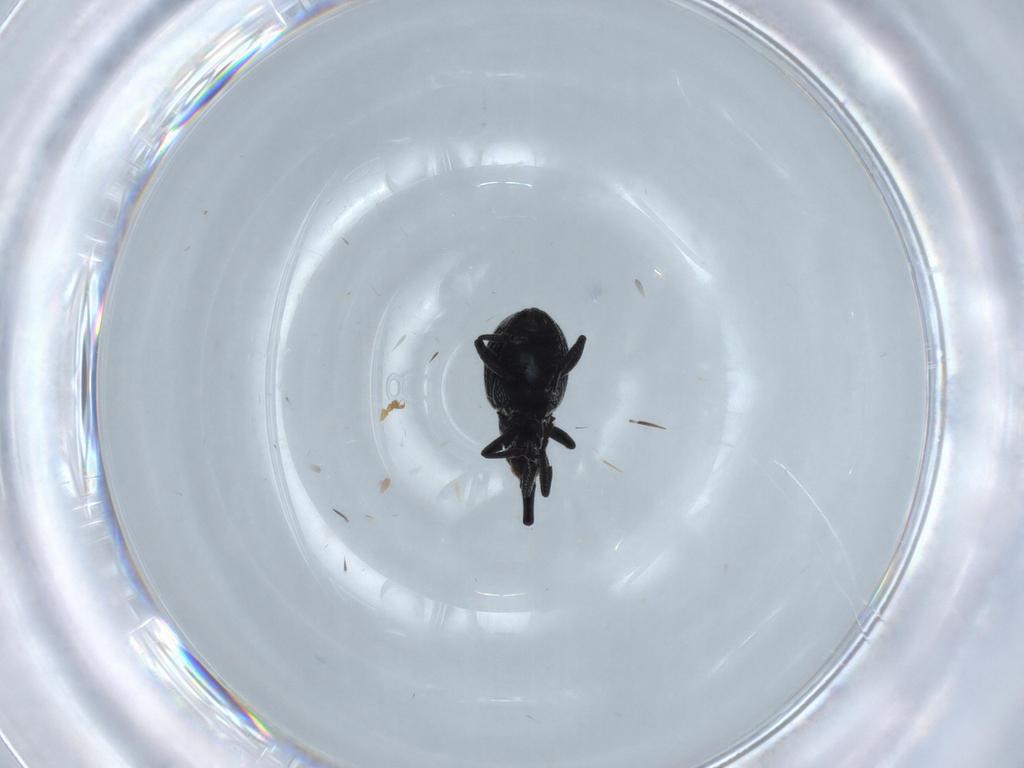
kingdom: Animalia
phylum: Arthropoda
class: Insecta
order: Coleoptera
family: Brentidae
